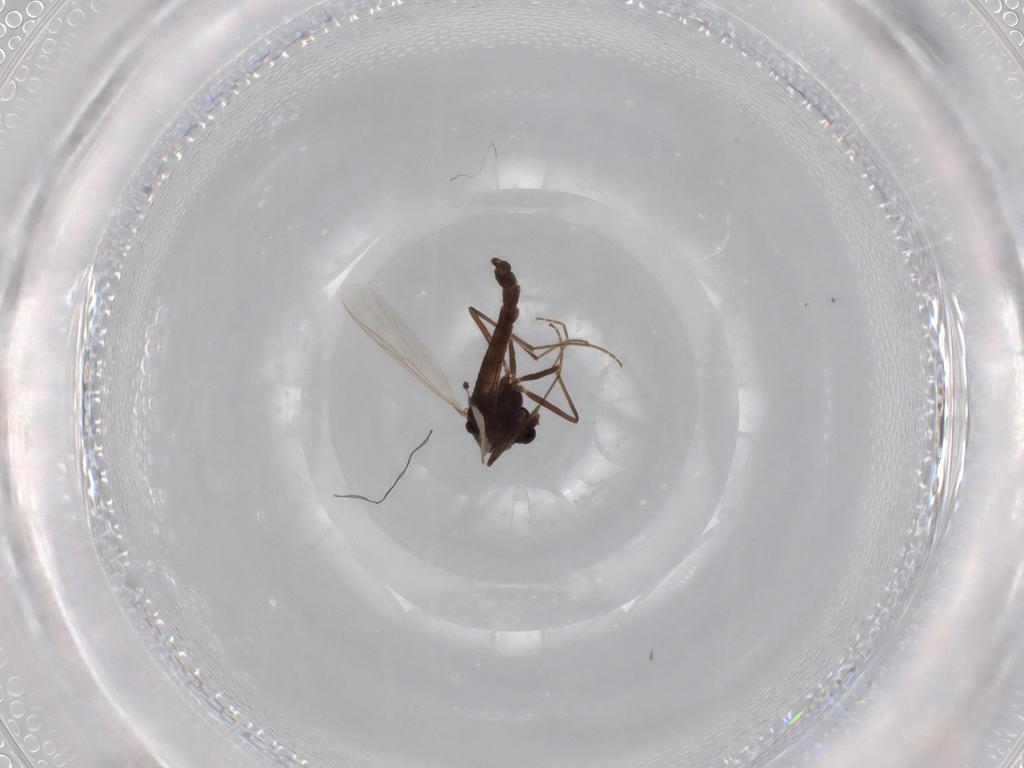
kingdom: Animalia
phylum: Arthropoda
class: Insecta
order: Diptera
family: Chironomidae
